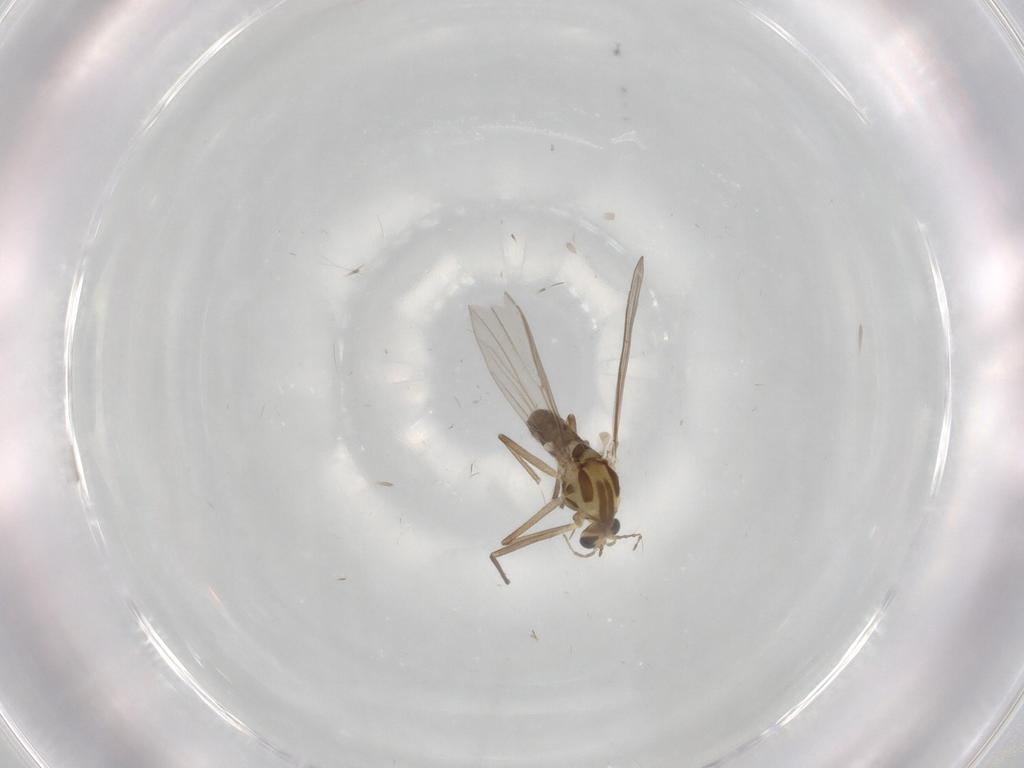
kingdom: Animalia
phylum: Arthropoda
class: Insecta
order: Diptera
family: Chironomidae
